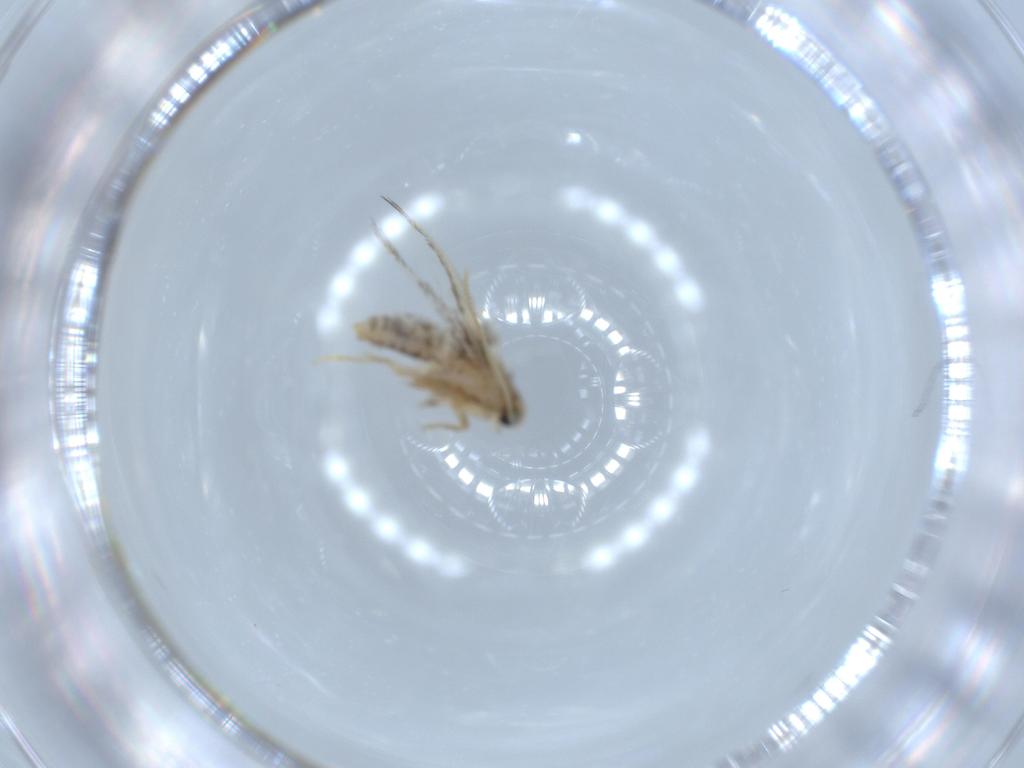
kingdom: Animalia
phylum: Arthropoda
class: Insecta
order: Lepidoptera
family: Nepticulidae
